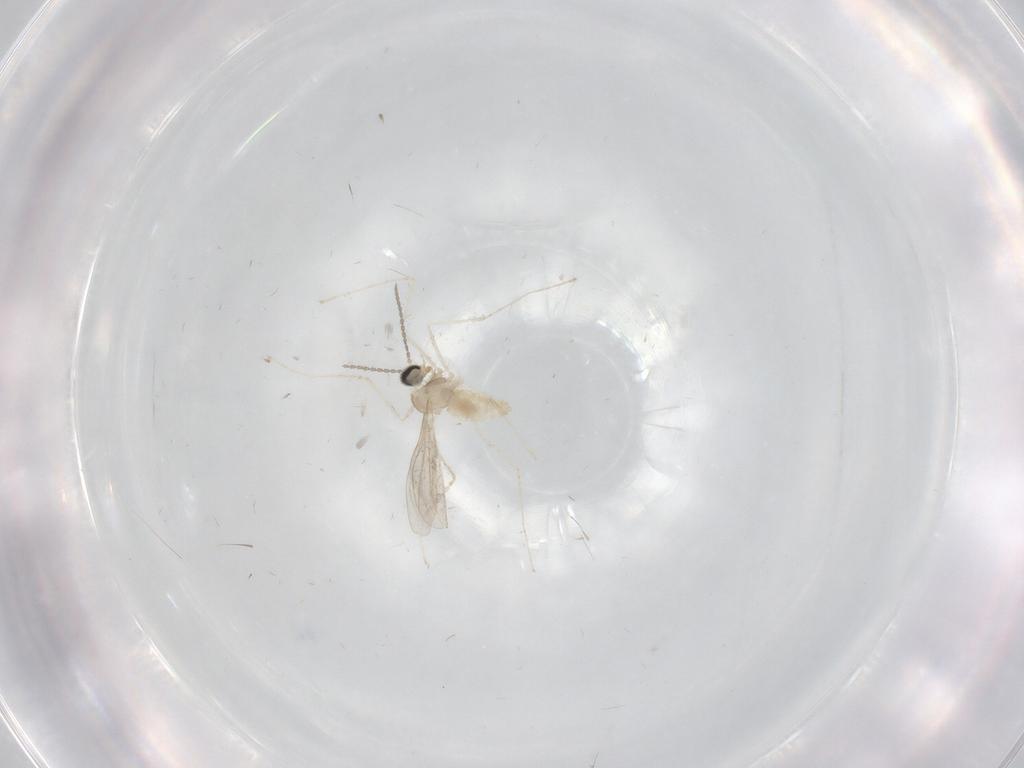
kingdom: Animalia
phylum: Arthropoda
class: Insecta
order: Diptera
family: Cecidomyiidae
